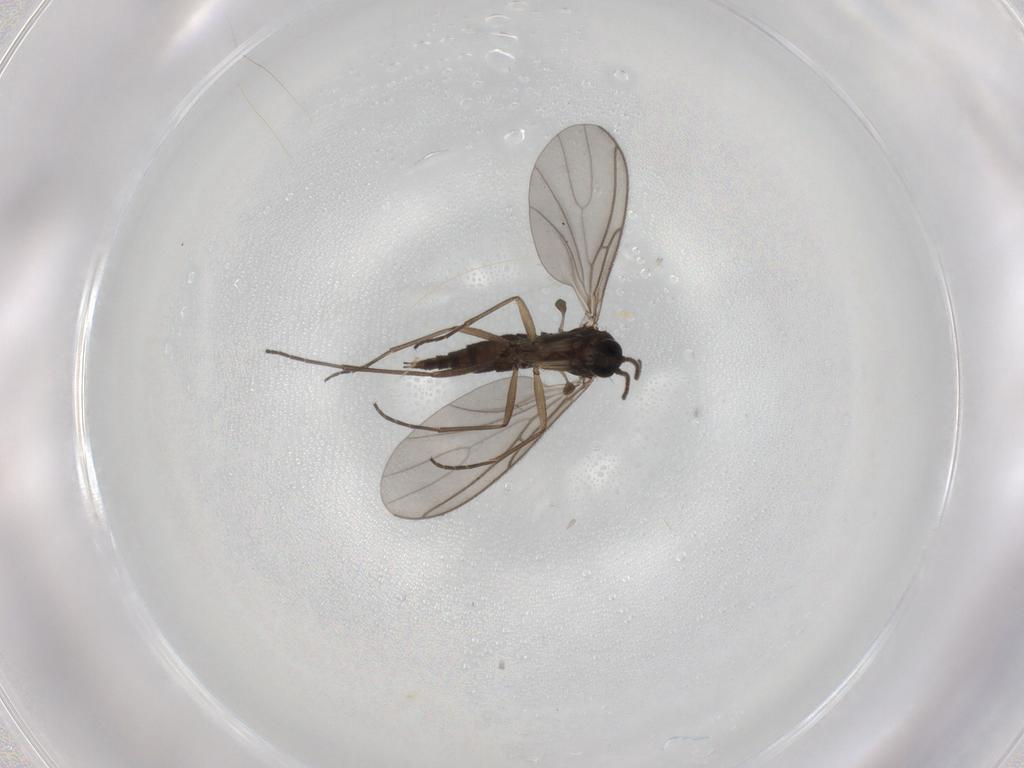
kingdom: Animalia
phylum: Arthropoda
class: Insecta
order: Diptera
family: Sciaridae
